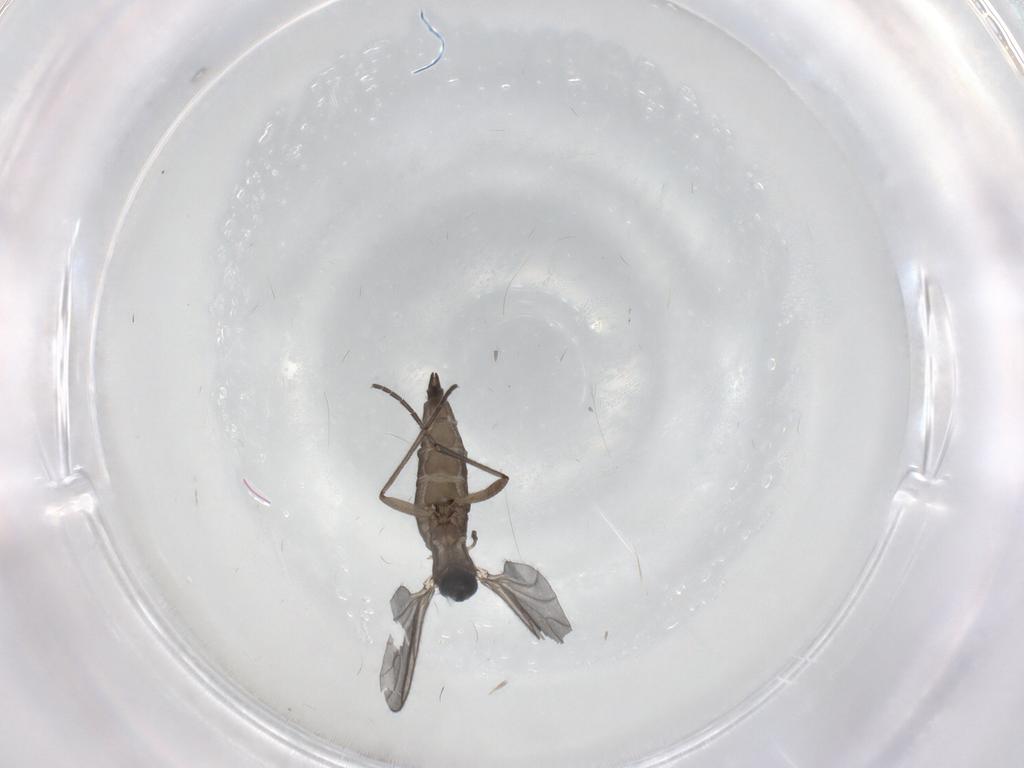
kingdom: Animalia
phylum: Arthropoda
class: Insecta
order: Diptera
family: Sciaridae
